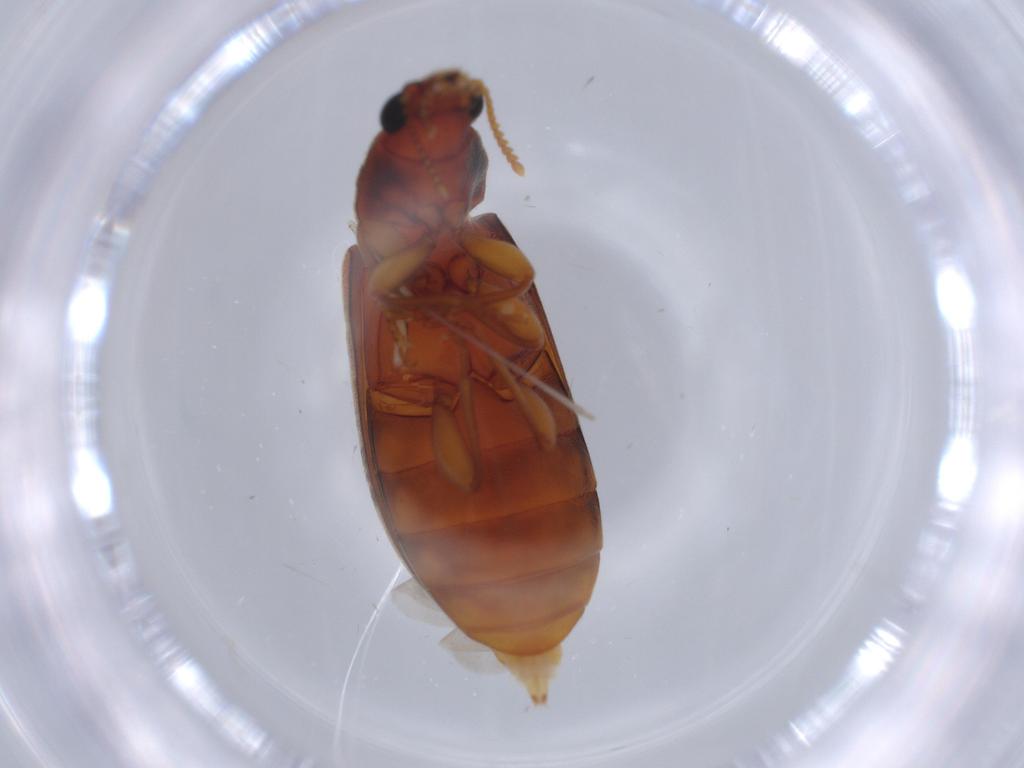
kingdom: Animalia
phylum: Arthropoda
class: Insecta
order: Coleoptera
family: Mycteridae
